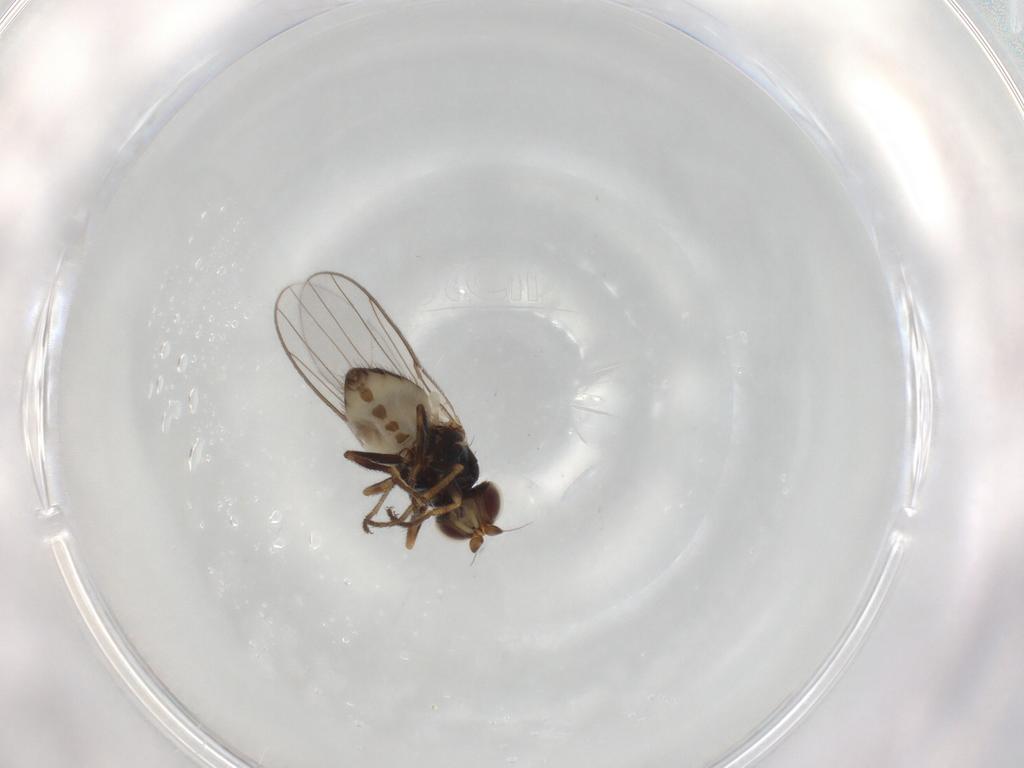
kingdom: Animalia
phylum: Arthropoda
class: Insecta
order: Diptera
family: Chloropidae
